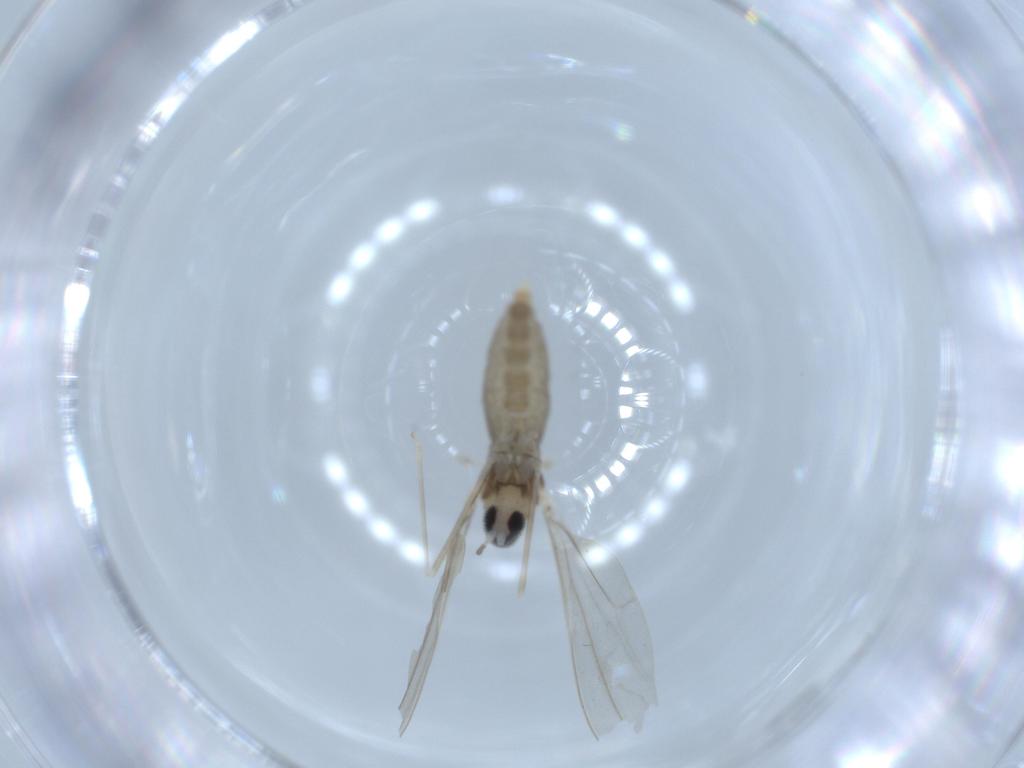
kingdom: Animalia
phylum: Arthropoda
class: Insecta
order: Diptera
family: Cecidomyiidae
